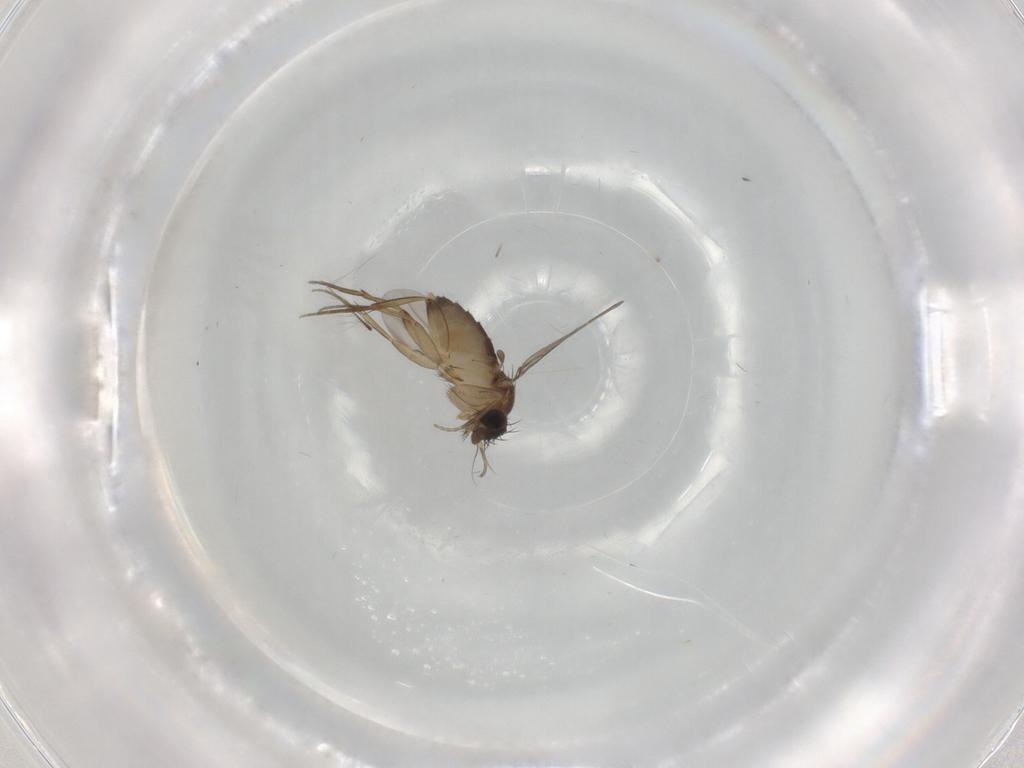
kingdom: Animalia
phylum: Arthropoda
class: Insecta
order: Diptera
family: Phoridae
